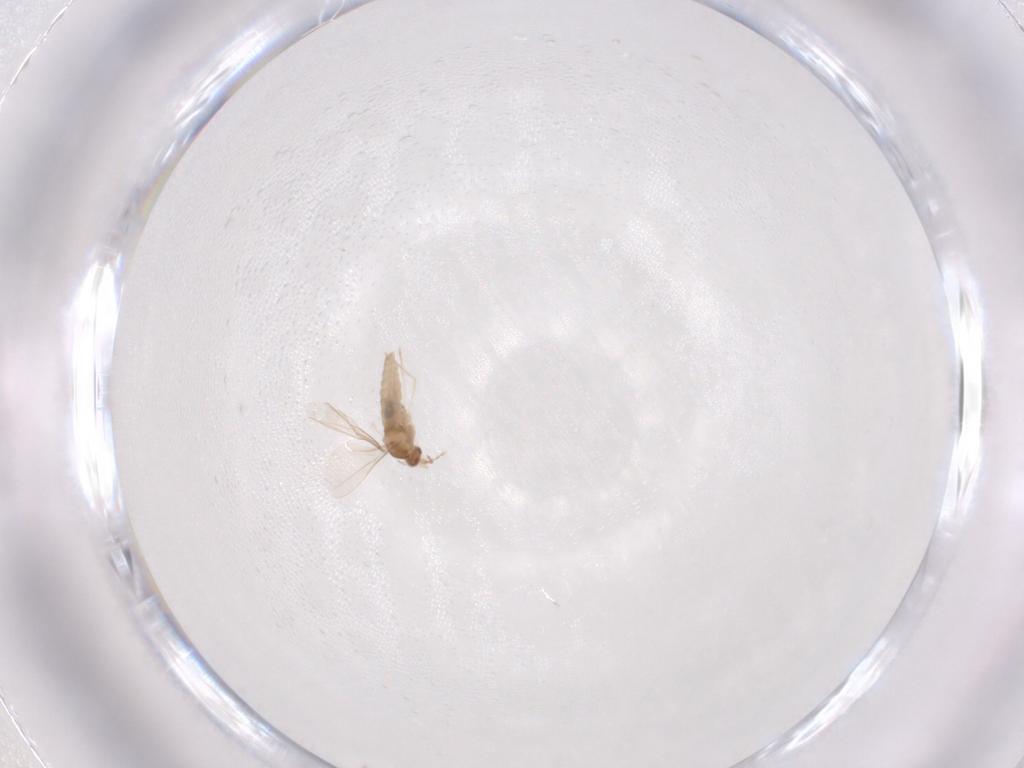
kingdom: Animalia
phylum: Arthropoda
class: Insecta
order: Diptera
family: Cecidomyiidae
